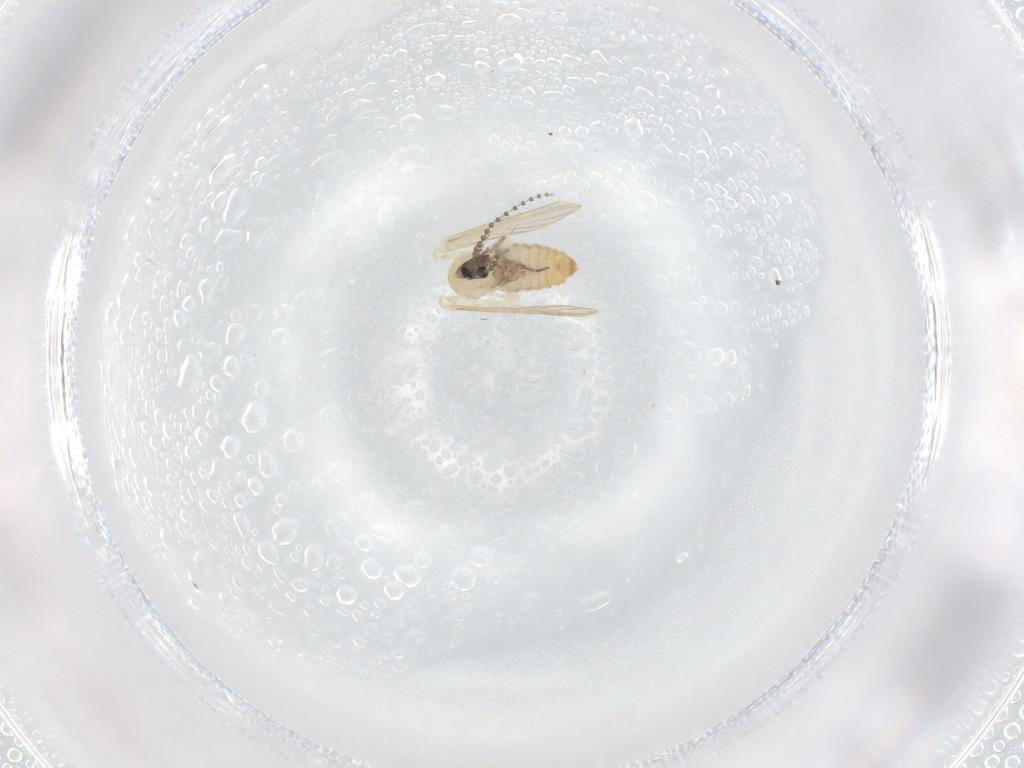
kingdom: Animalia
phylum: Arthropoda
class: Insecta
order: Diptera
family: Psychodidae
